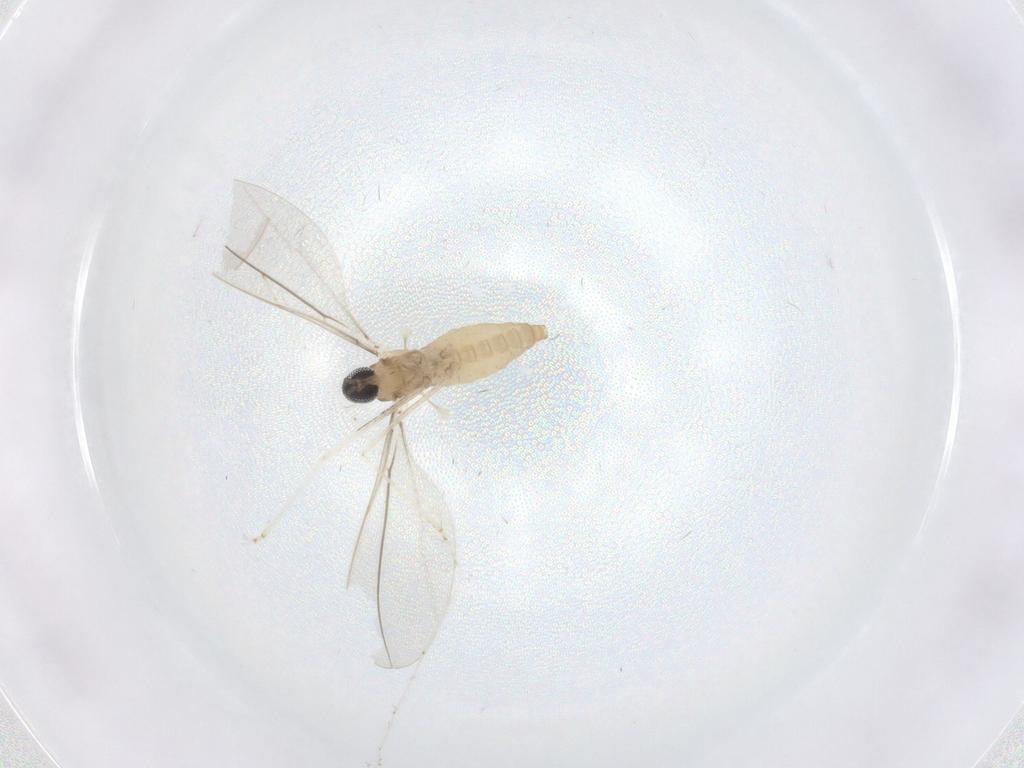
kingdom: Animalia
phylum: Arthropoda
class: Insecta
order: Diptera
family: Cecidomyiidae
